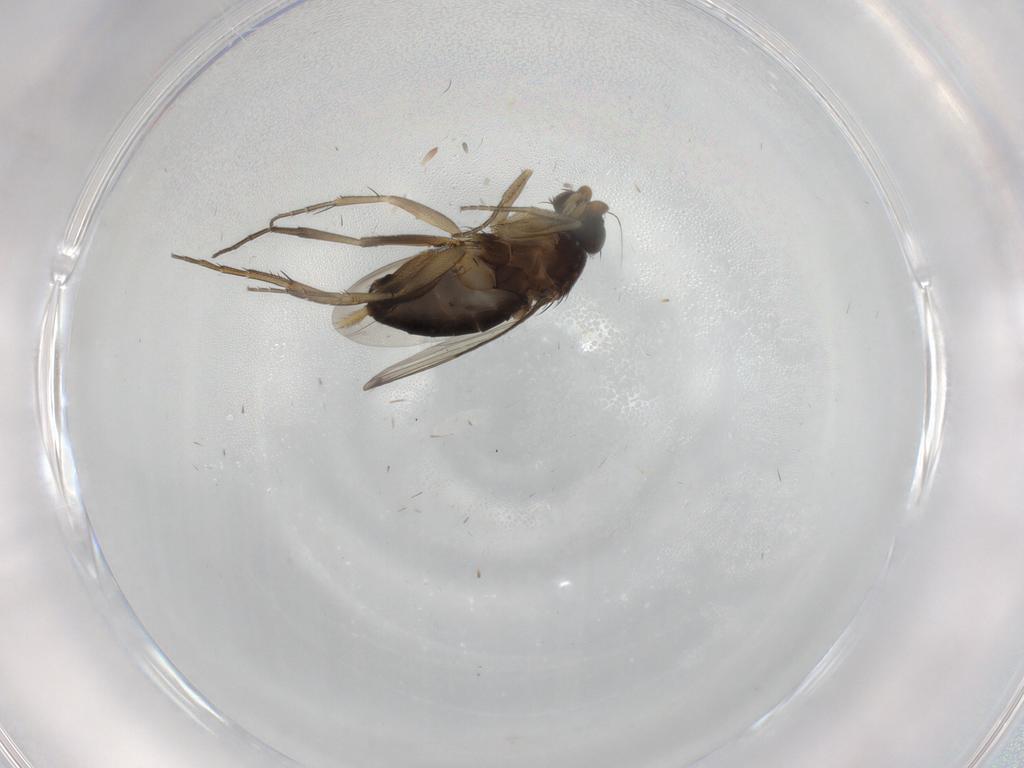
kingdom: Animalia
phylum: Arthropoda
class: Insecta
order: Diptera
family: Phoridae
